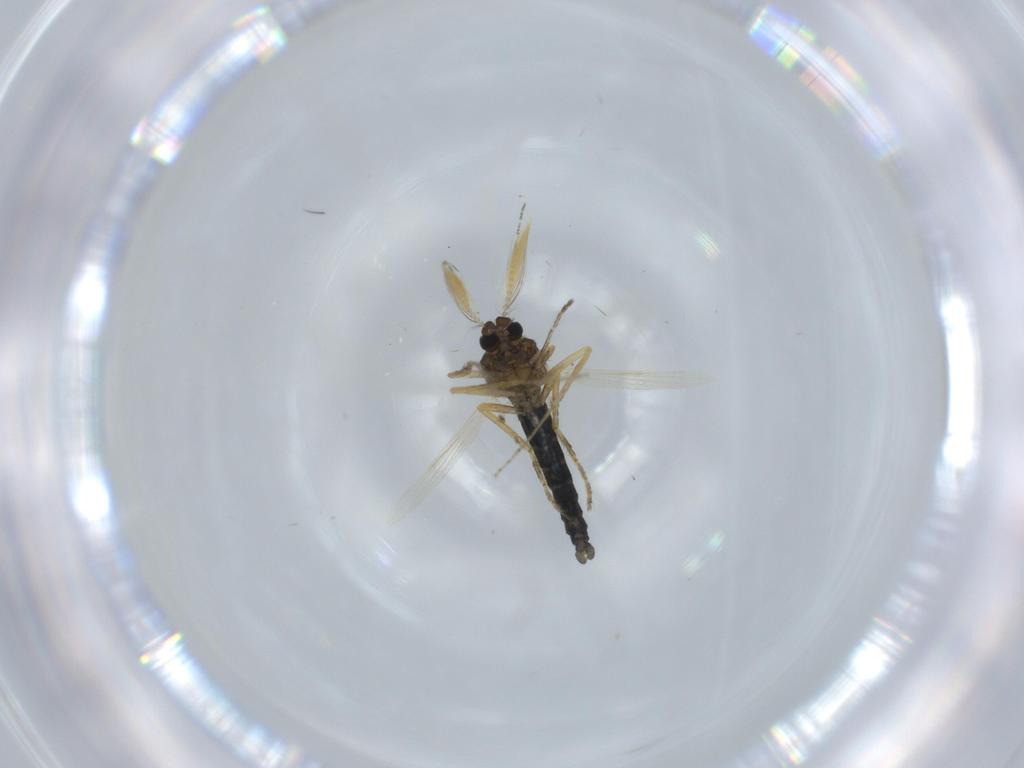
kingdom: Animalia
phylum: Arthropoda
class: Insecta
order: Diptera
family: Ceratopogonidae
